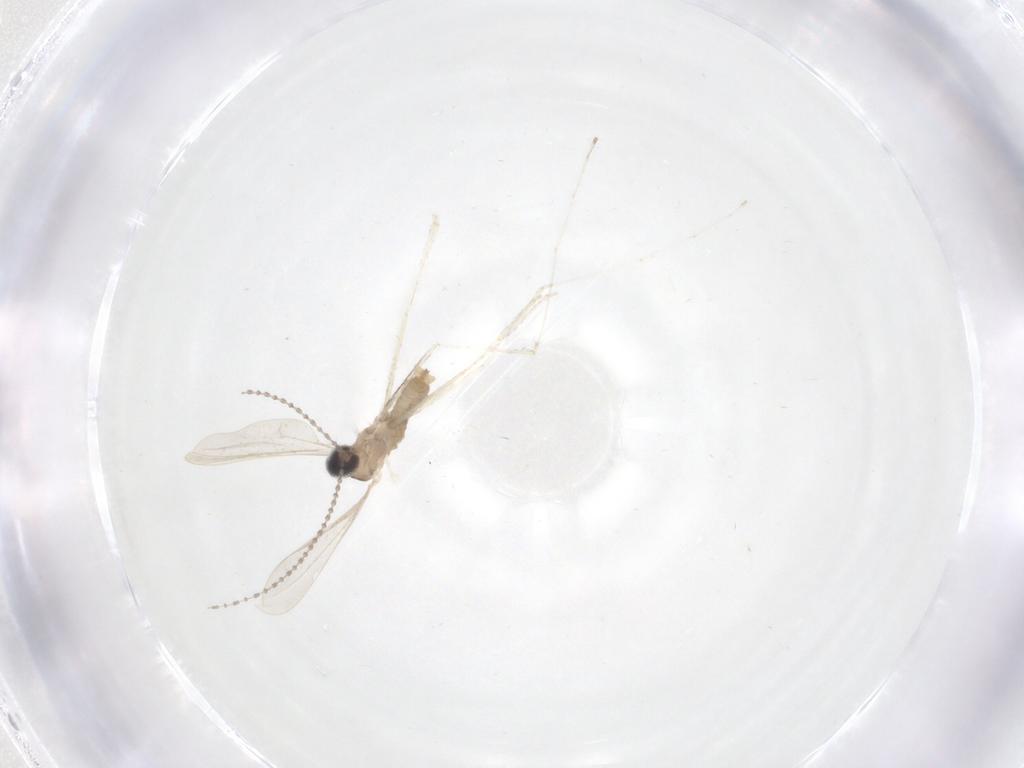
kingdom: Animalia
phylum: Arthropoda
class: Insecta
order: Diptera
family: Cecidomyiidae
